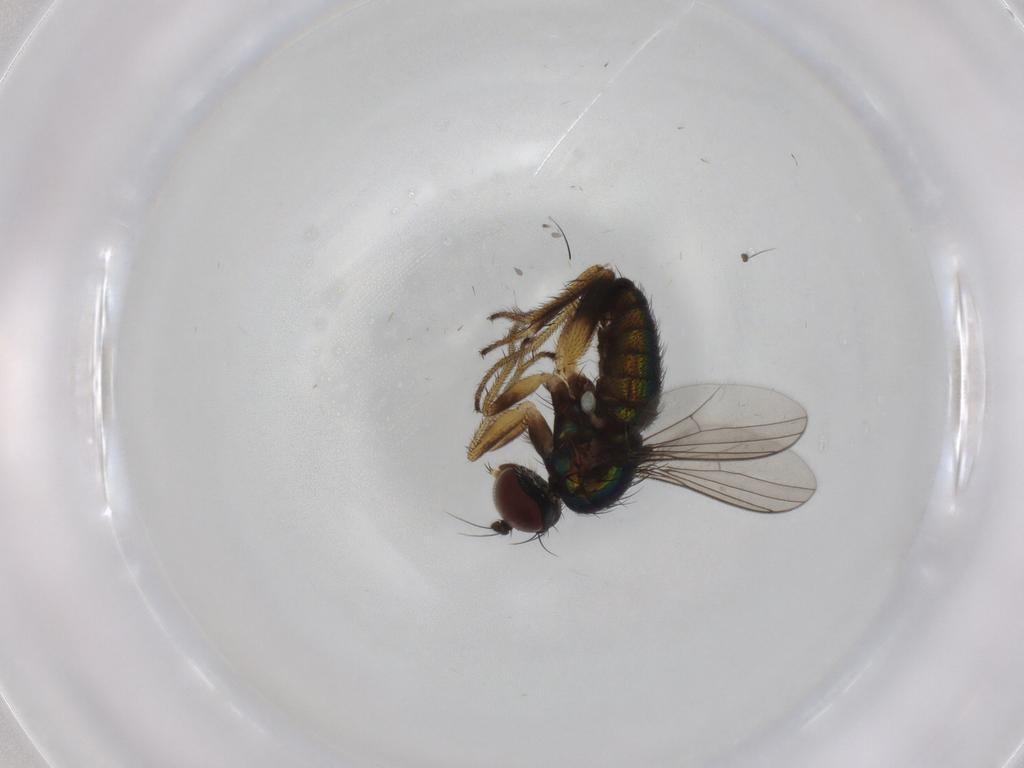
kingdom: Animalia
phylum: Arthropoda
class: Insecta
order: Diptera
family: Dolichopodidae
